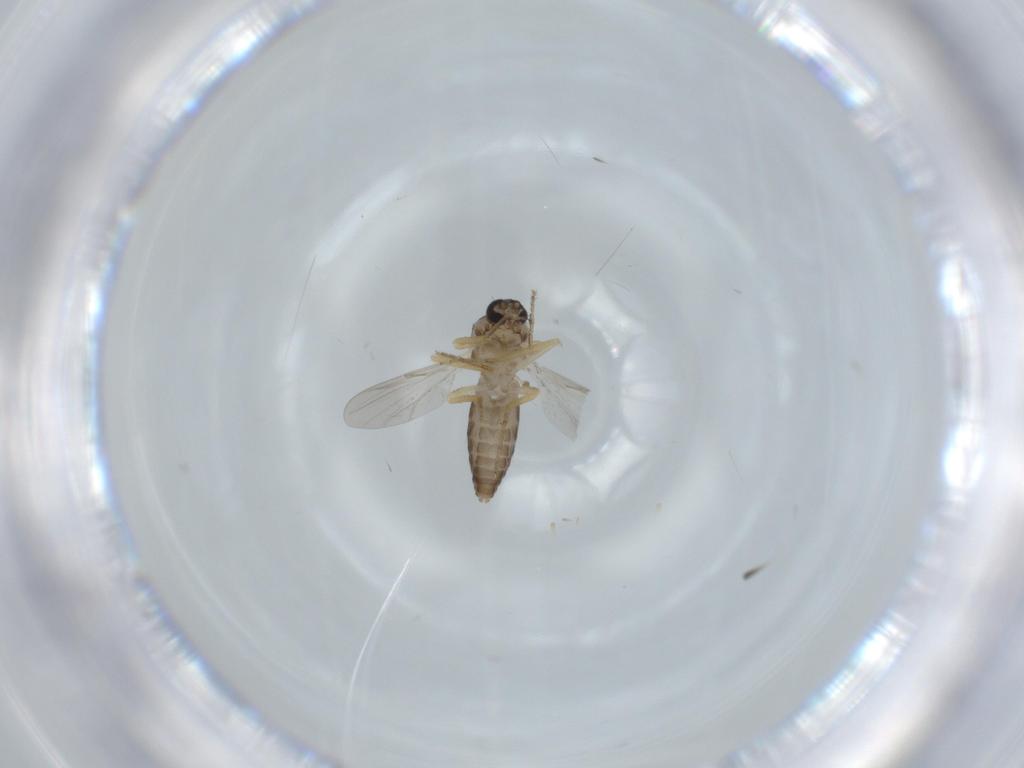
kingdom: Animalia
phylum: Arthropoda
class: Insecta
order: Diptera
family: Ceratopogonidae
